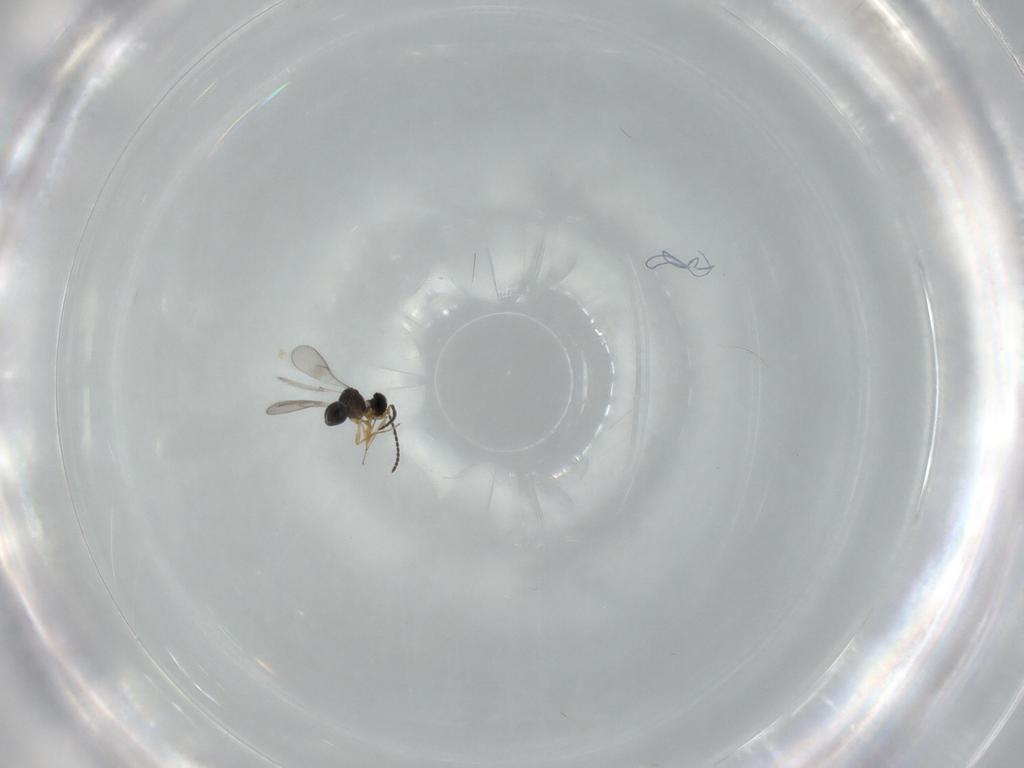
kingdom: Animalia
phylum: Arthropoda
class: Insecta
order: Hymenoptera
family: Scelionidae
